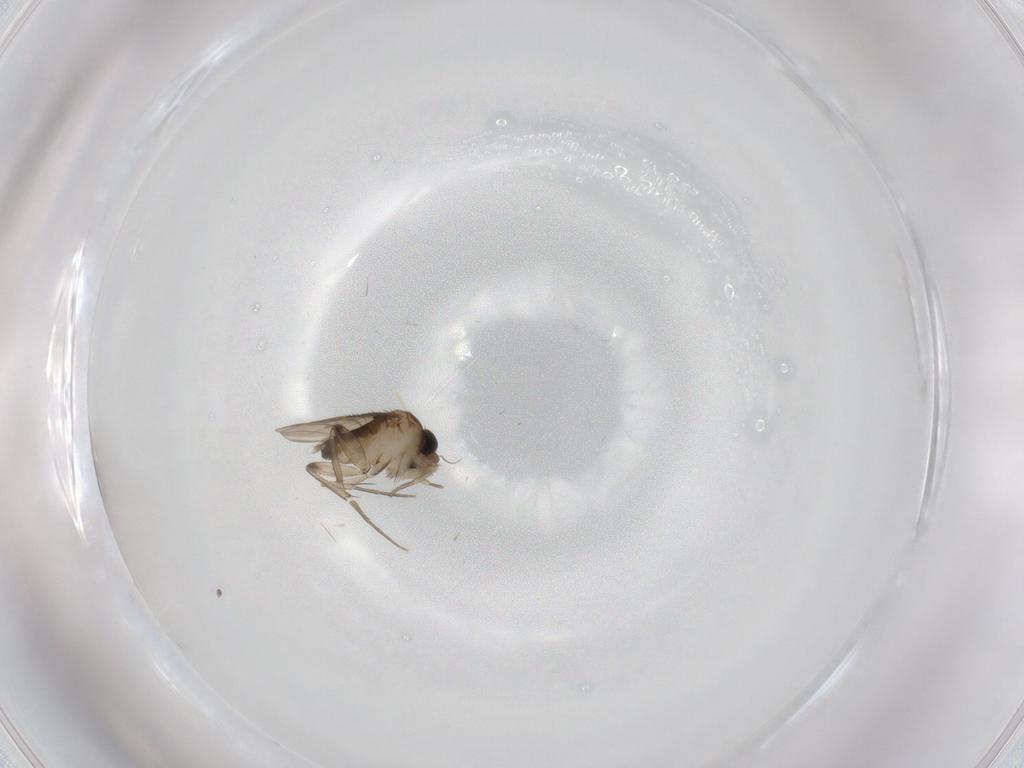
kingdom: Animalia
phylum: Arthropoda
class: Insecta
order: Diptera
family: Phoridae
